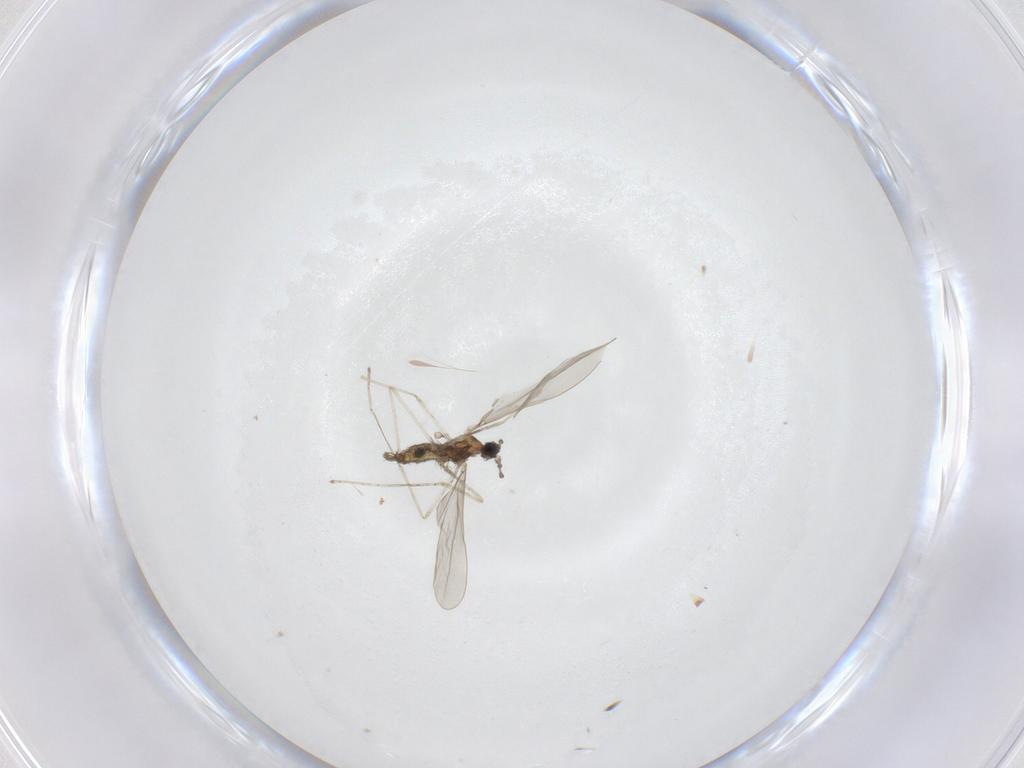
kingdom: Animalia
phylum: Arthropoda
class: Insecta
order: Diptera
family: Cecidomyiidae
